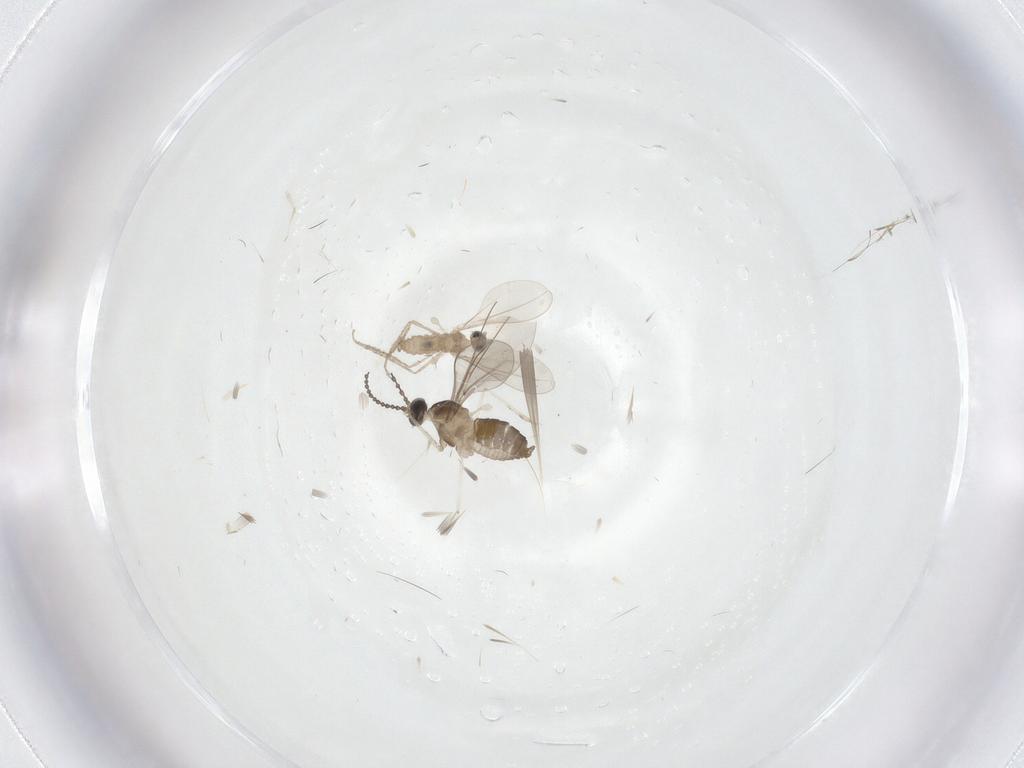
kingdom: Animalia
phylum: Arthropoda
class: Insecta
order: Diptera
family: Cecidomyiidae
